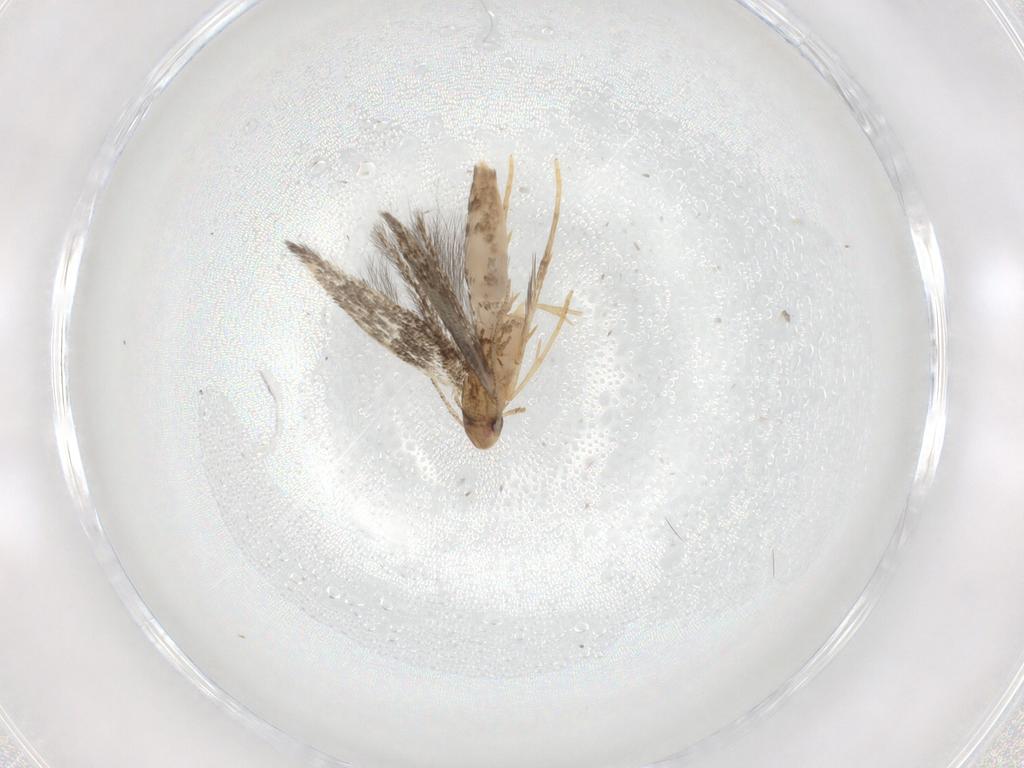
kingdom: Animalia
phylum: Arthropoda
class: Insecta
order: Lepidoptera
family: Elachistidae
